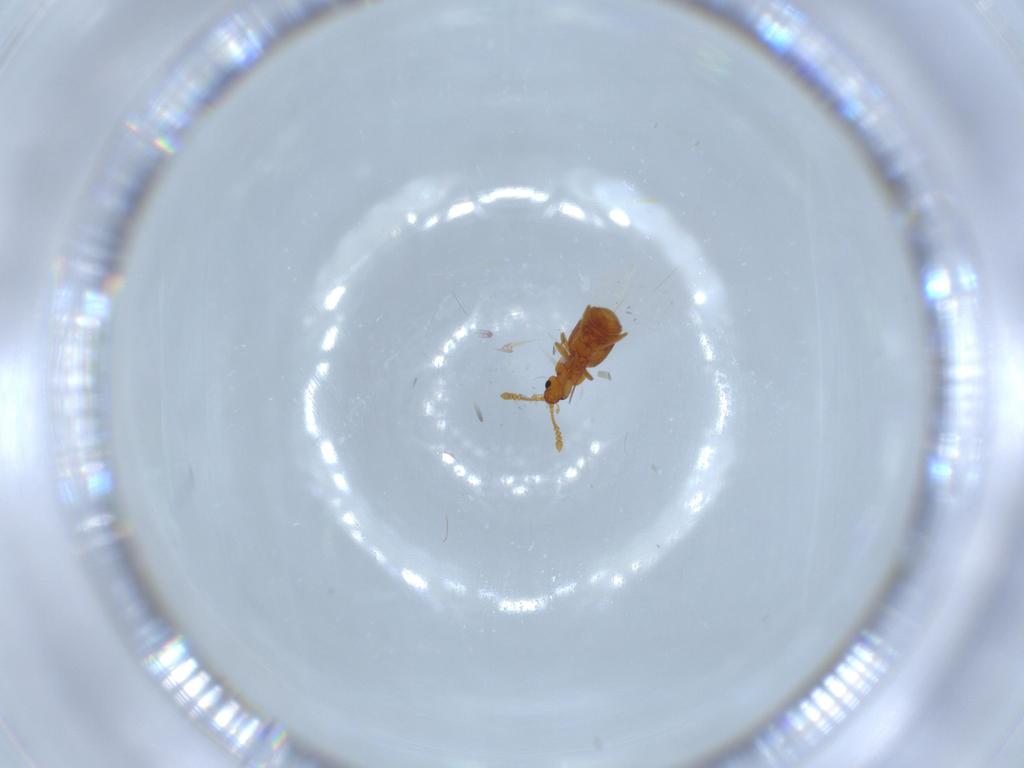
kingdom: Animalia
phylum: Arthropoda
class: Insecta
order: Coleoptera
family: Staphylinidae
